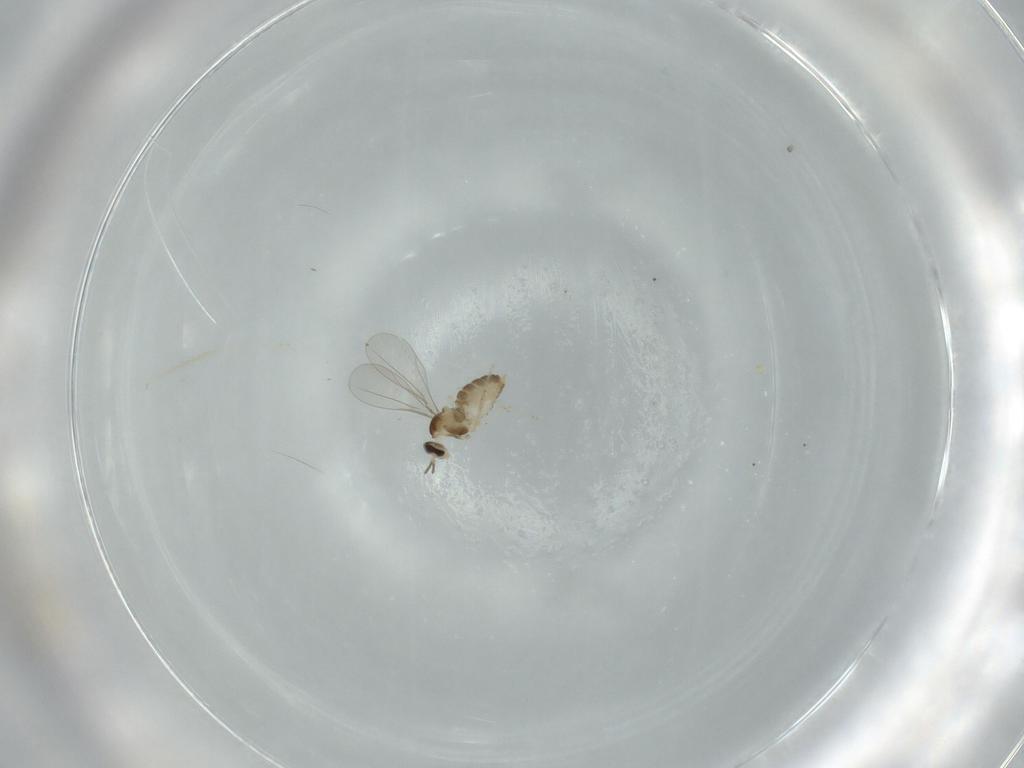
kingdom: Animalia
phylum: Arthropoda
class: Insecta
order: Diptera
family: Cecidomyiidae
